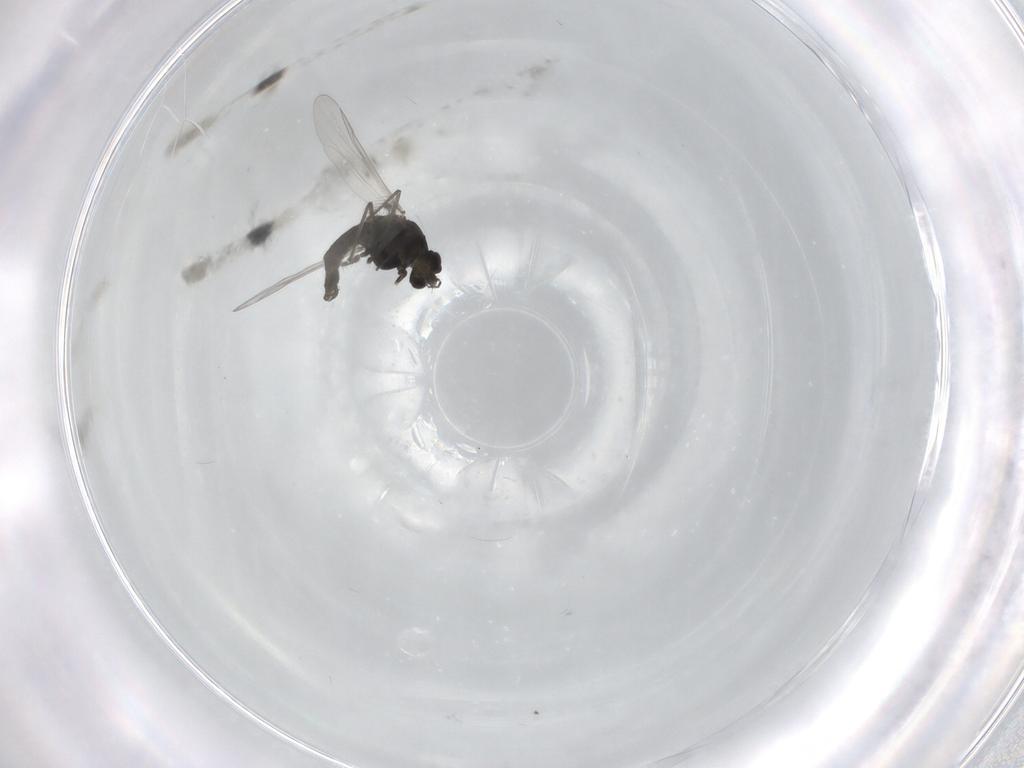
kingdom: Animalia
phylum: Arthropoda
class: Insecta
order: Diptera
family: Chironomidae
